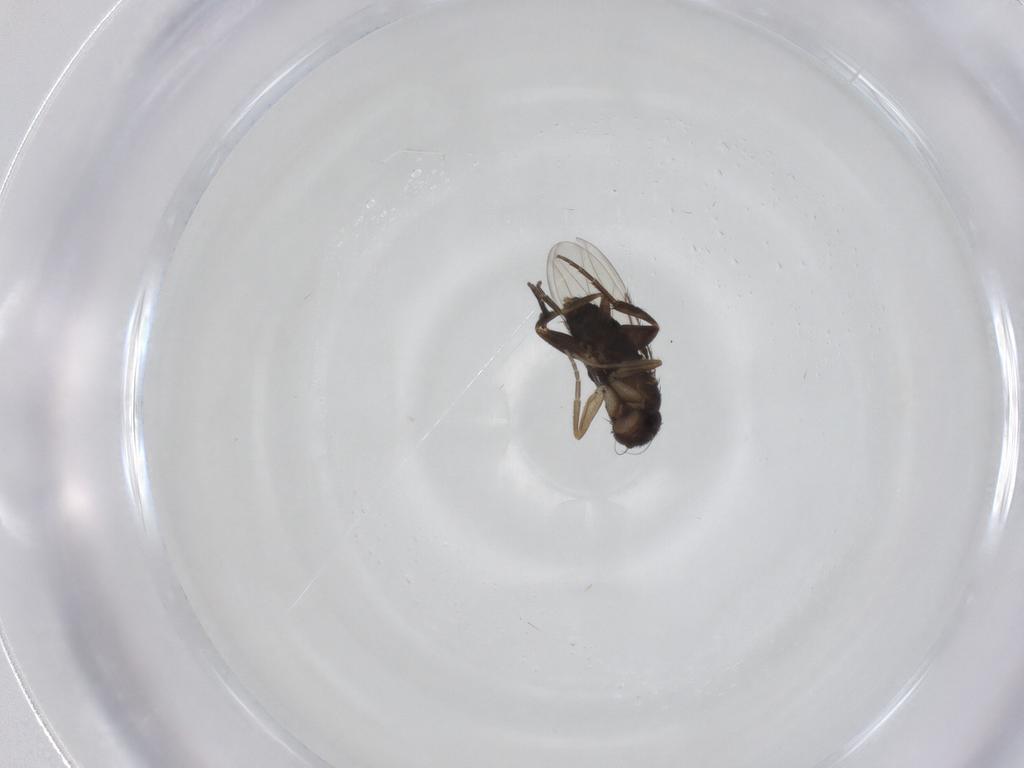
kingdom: Animalia
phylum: Arthropoda
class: Insecta
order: Diptera
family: Phoridae
